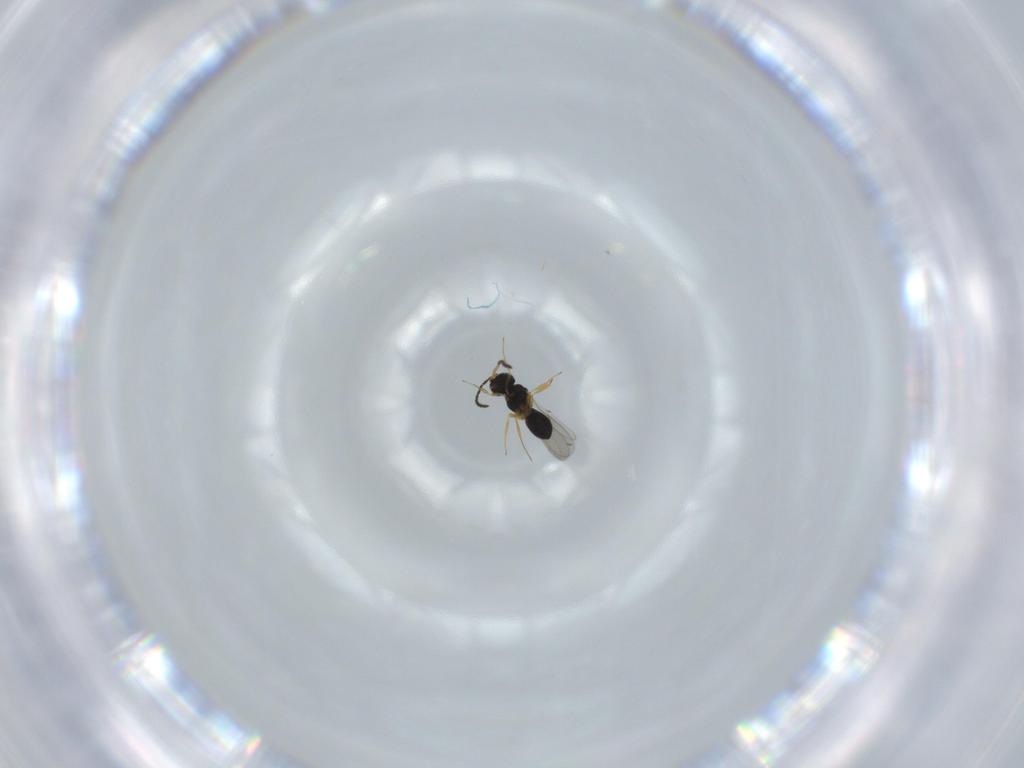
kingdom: Animalia
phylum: Arthropoda
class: Insecta
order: Hymenoptera
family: Scelionidae
